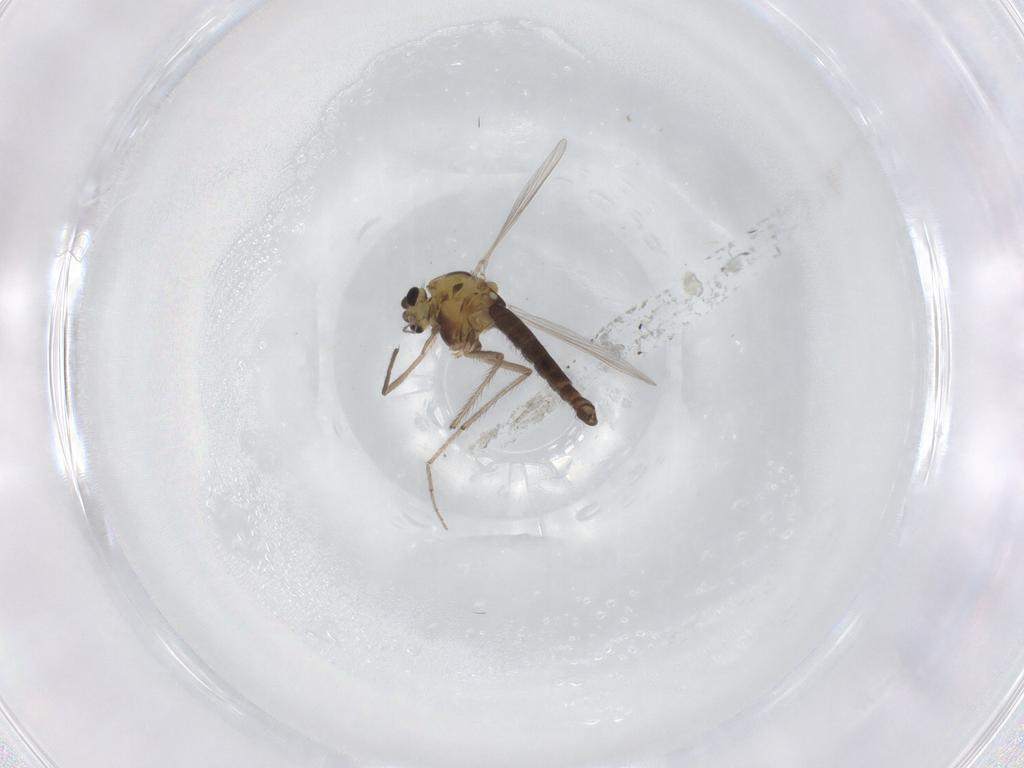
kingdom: Animalia
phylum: Arthropoda
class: Insecta
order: Diptera
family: Chironomidae
